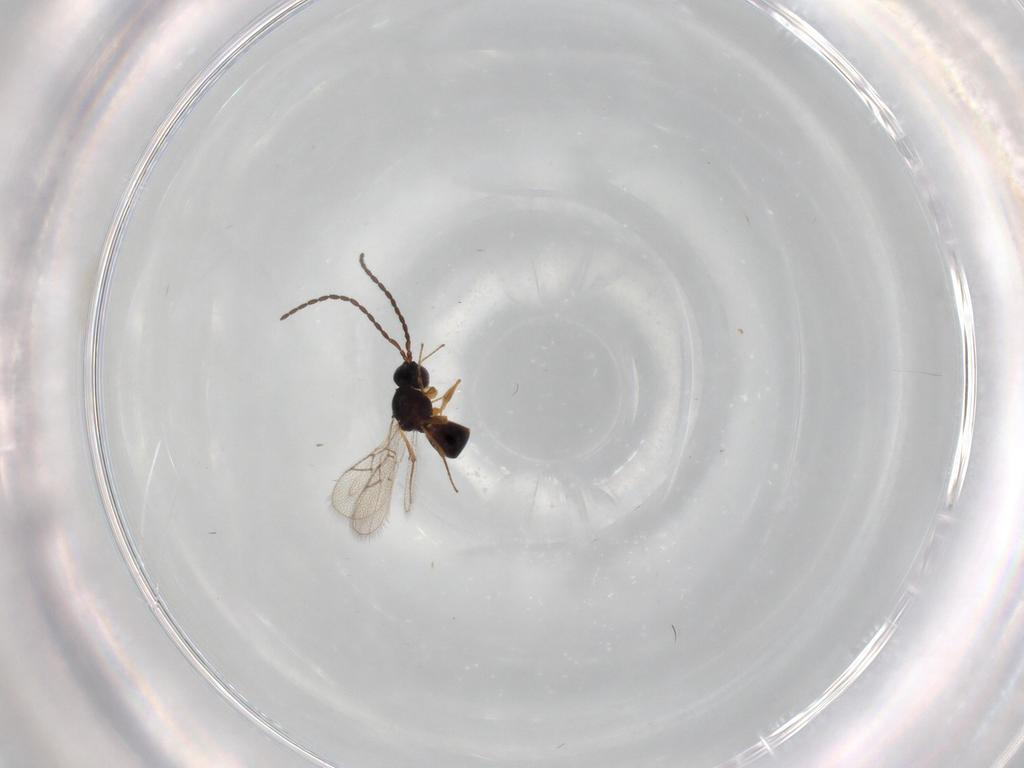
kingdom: Animalia
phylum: Arthropoda
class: Insecta
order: Hymenoptera
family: Figitidae
